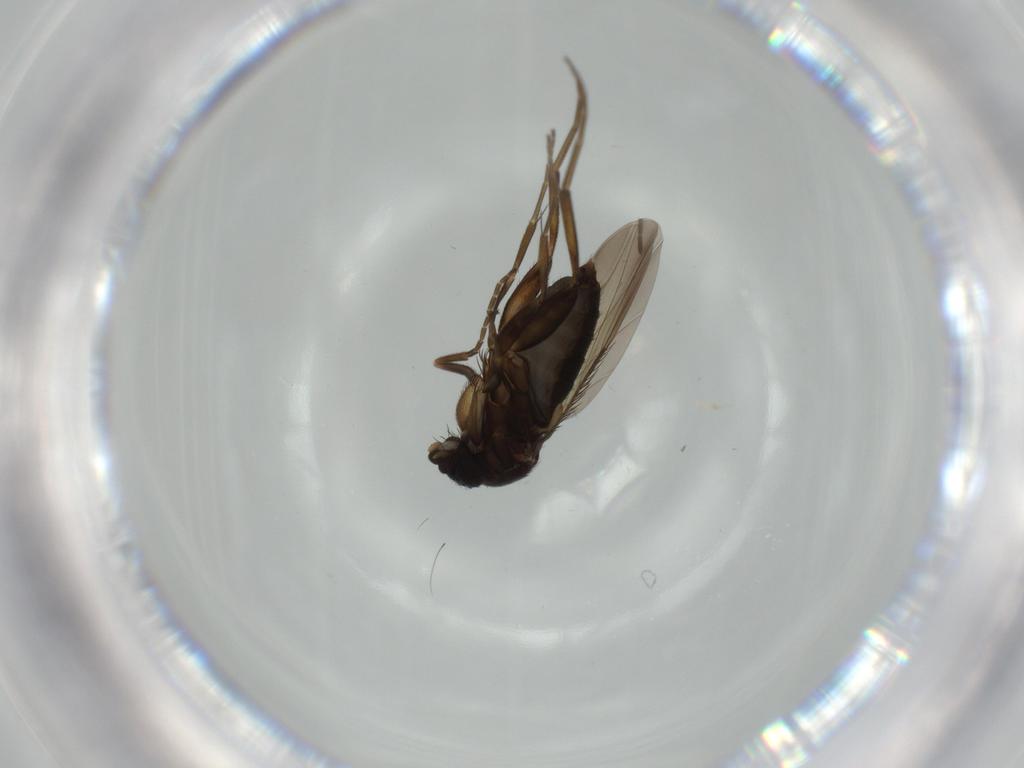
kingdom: Animalia
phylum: Arthropoda
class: Insecta
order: Diptera
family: Phoridae
